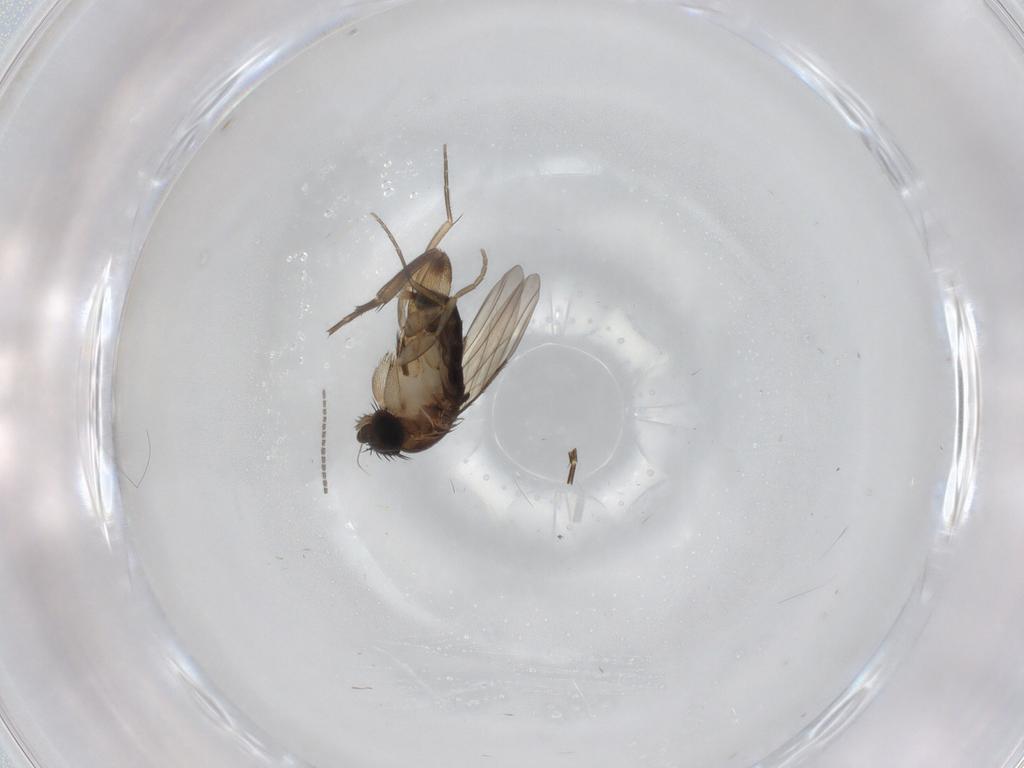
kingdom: Animalia
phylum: Arthropoda
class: Insecta
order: Diptera
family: Phoridae
